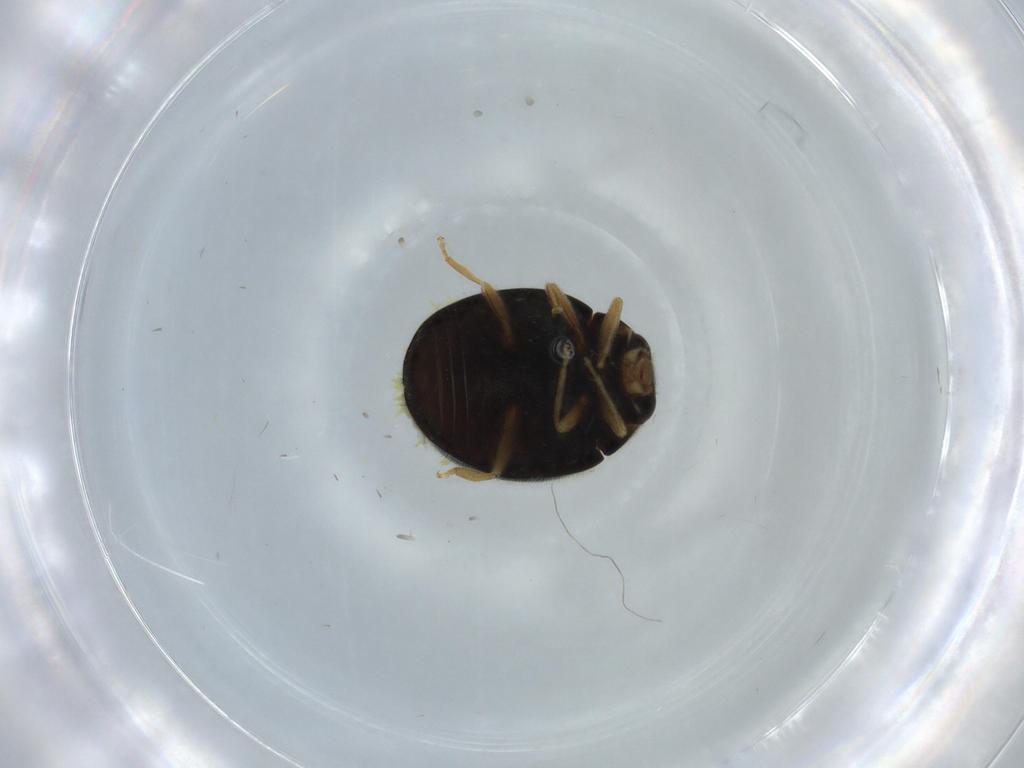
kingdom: Animalia
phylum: Arthropoda
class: Insecta
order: Coleoptera
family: Coccinellidae
